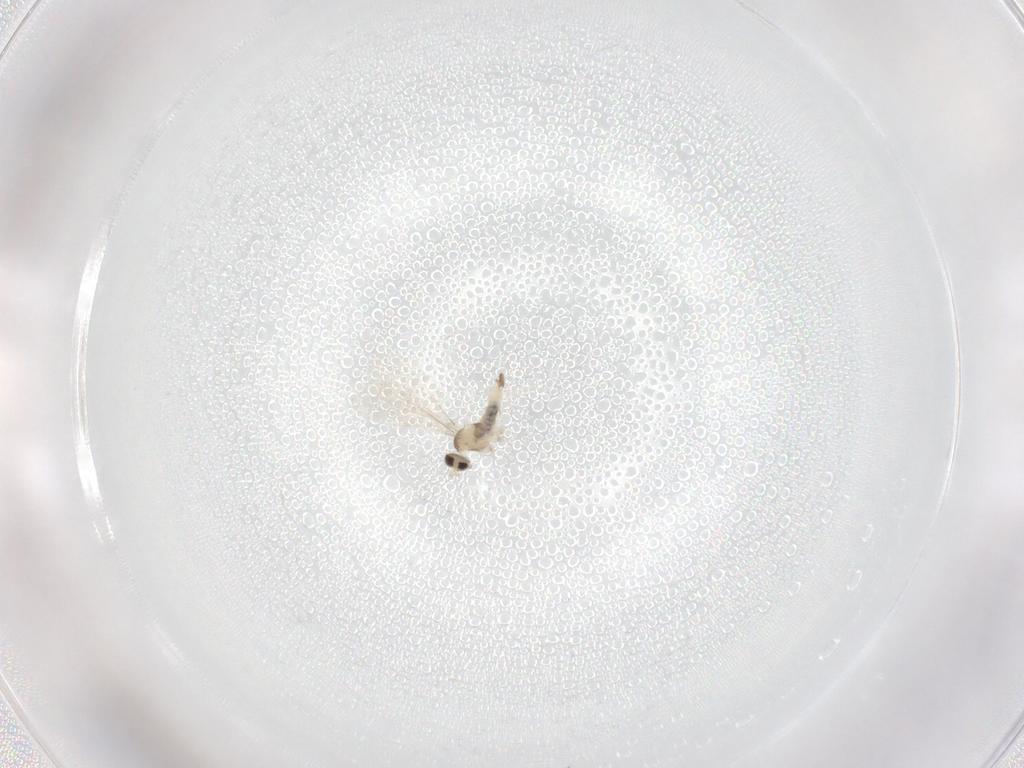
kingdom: Animalia
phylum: Arthropoda
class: Insecta
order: Diptera
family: Cecidomyiidae
